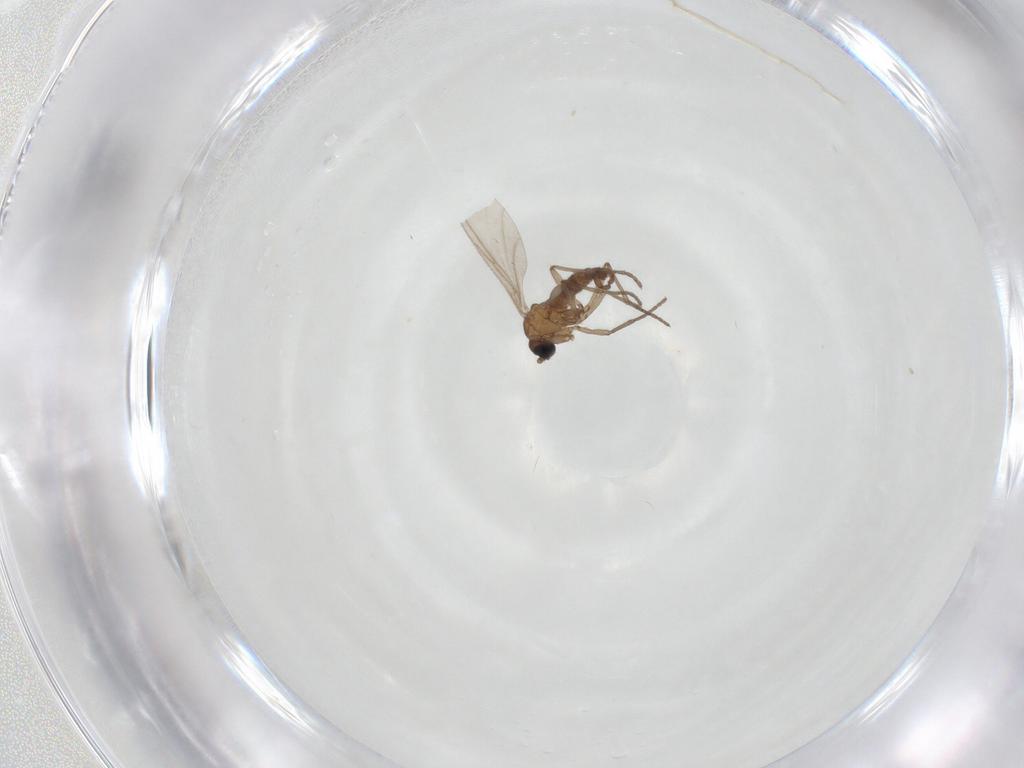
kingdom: Animalia
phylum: Arthropoda
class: Insecta
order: Diptera
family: Sciaridae
